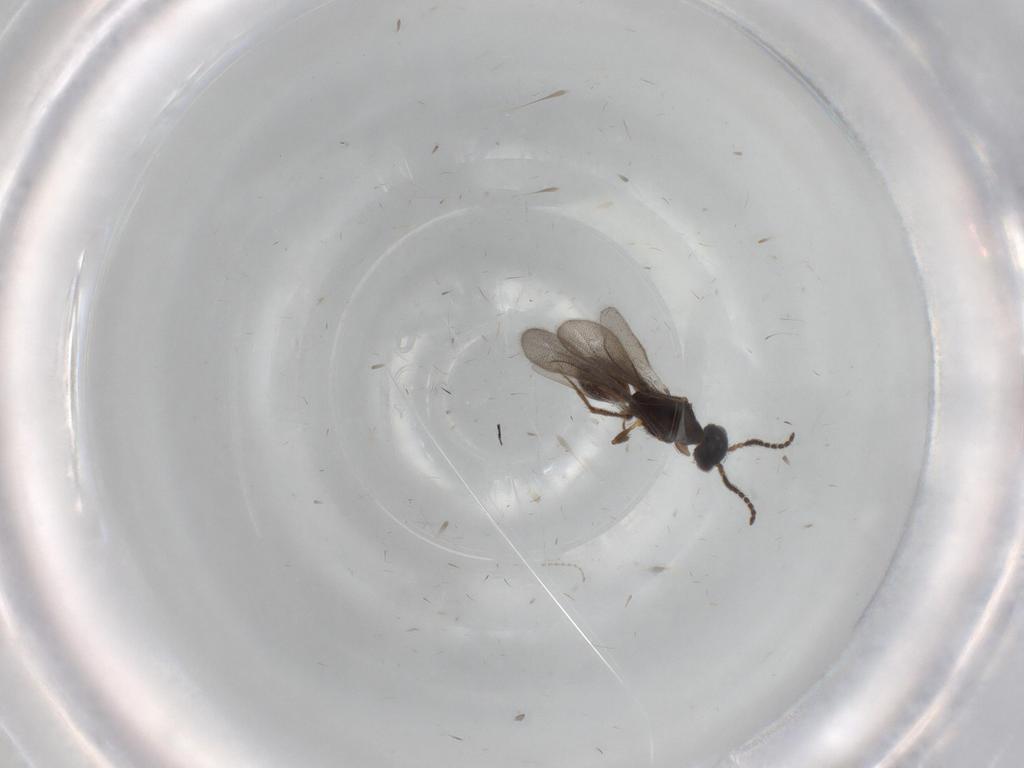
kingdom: Animalia
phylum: Arthropoda
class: Insecta
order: Hymenoptera
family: Bethylidae
